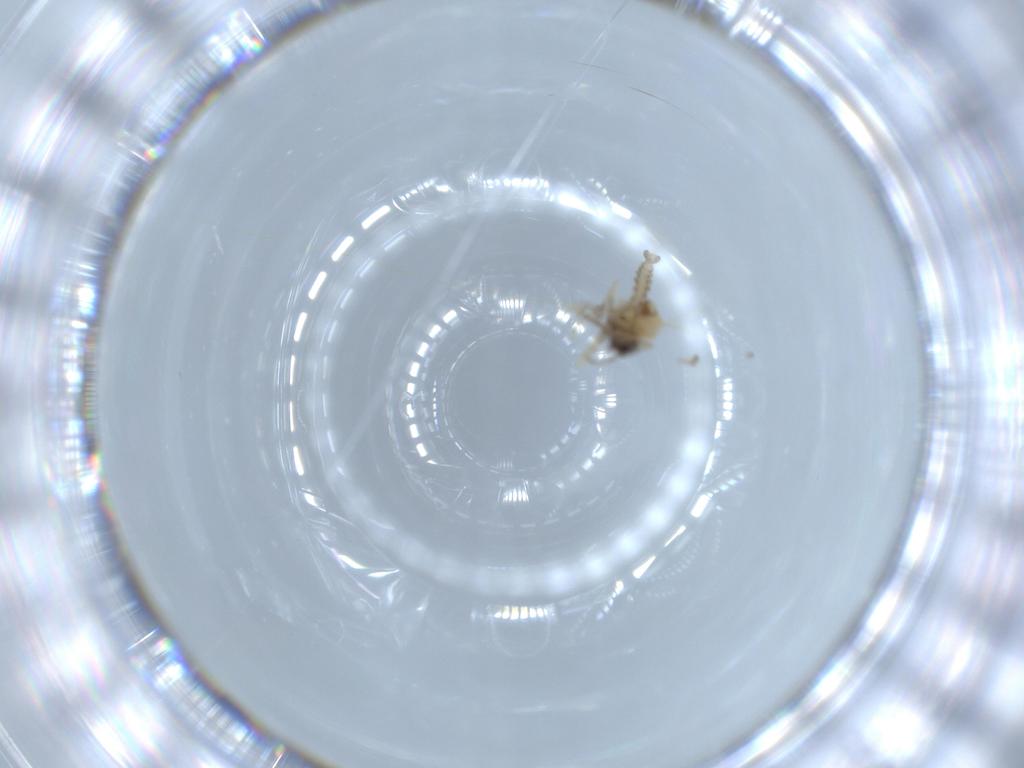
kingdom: Animalia
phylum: Arthropoda
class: Insecta
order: Diptera
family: Ceratopogonidae
